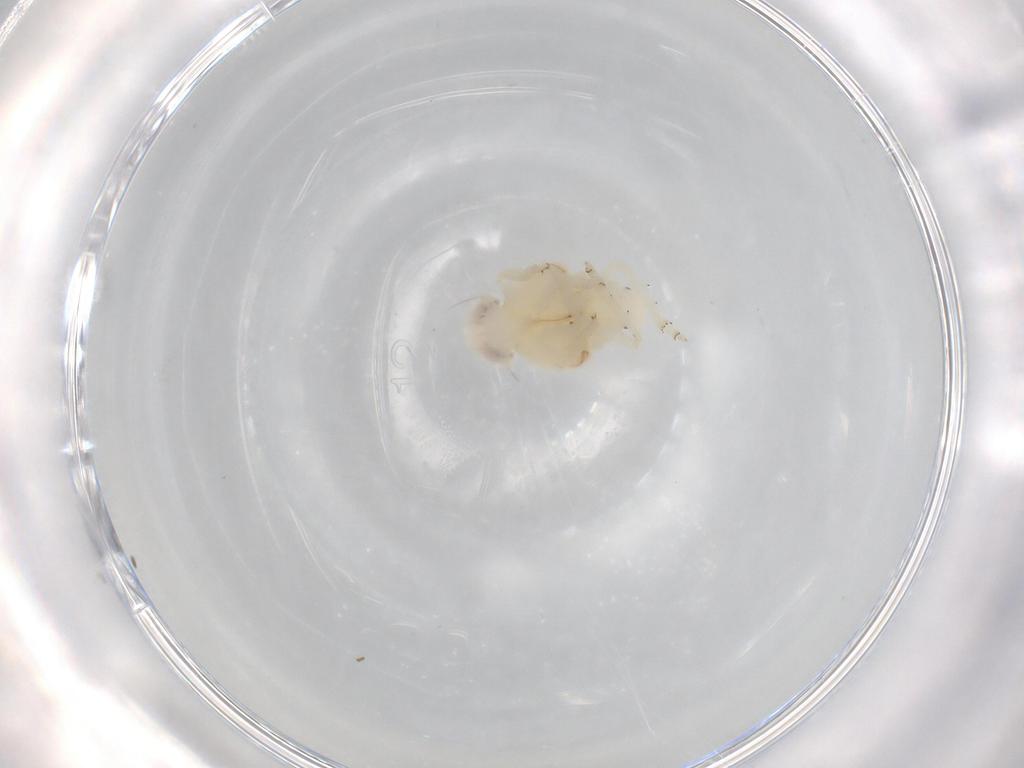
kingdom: Animalia
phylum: Arthropoda
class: Insecta
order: Hemiptera
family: Nogodinidae
